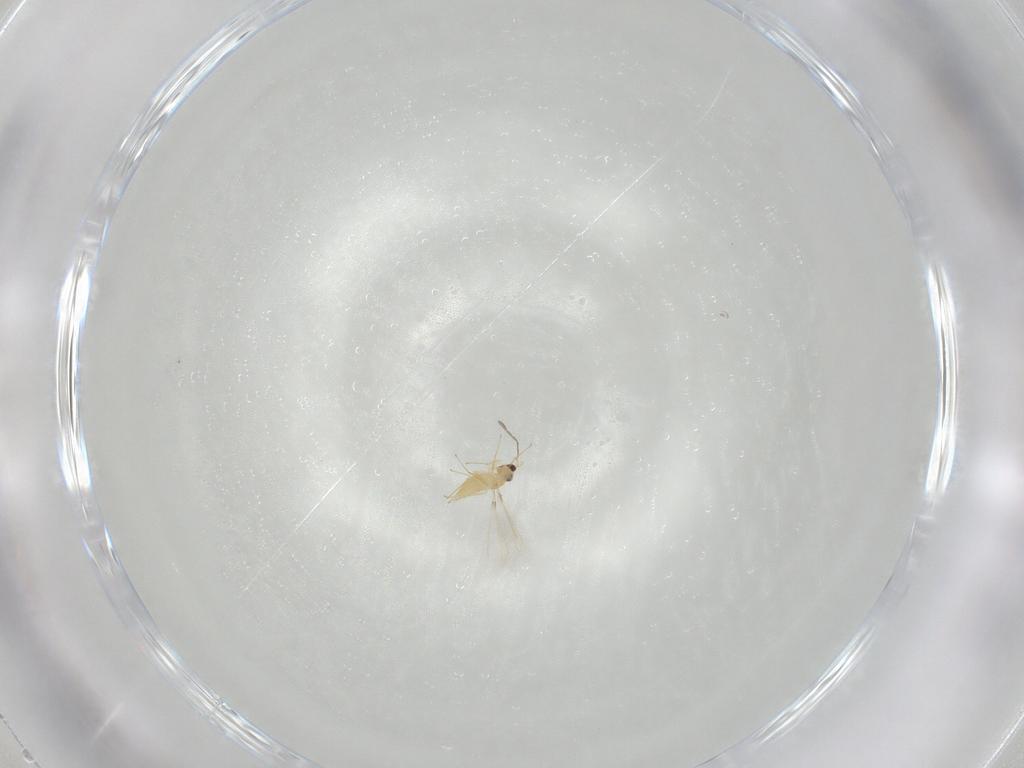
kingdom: Animalia
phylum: Arthropoda
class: Insecta
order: Hymenoptera
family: Mymaridae
